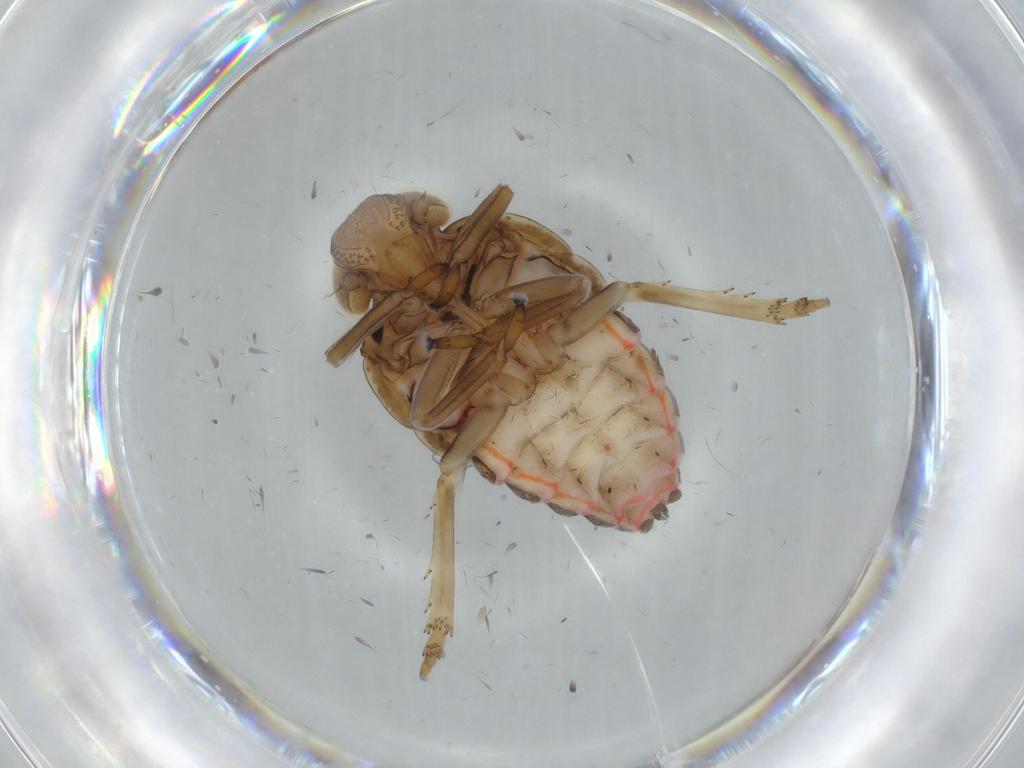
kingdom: Animalia
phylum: Arthropoda
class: Insecta
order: Hemiptera
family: Issidae
